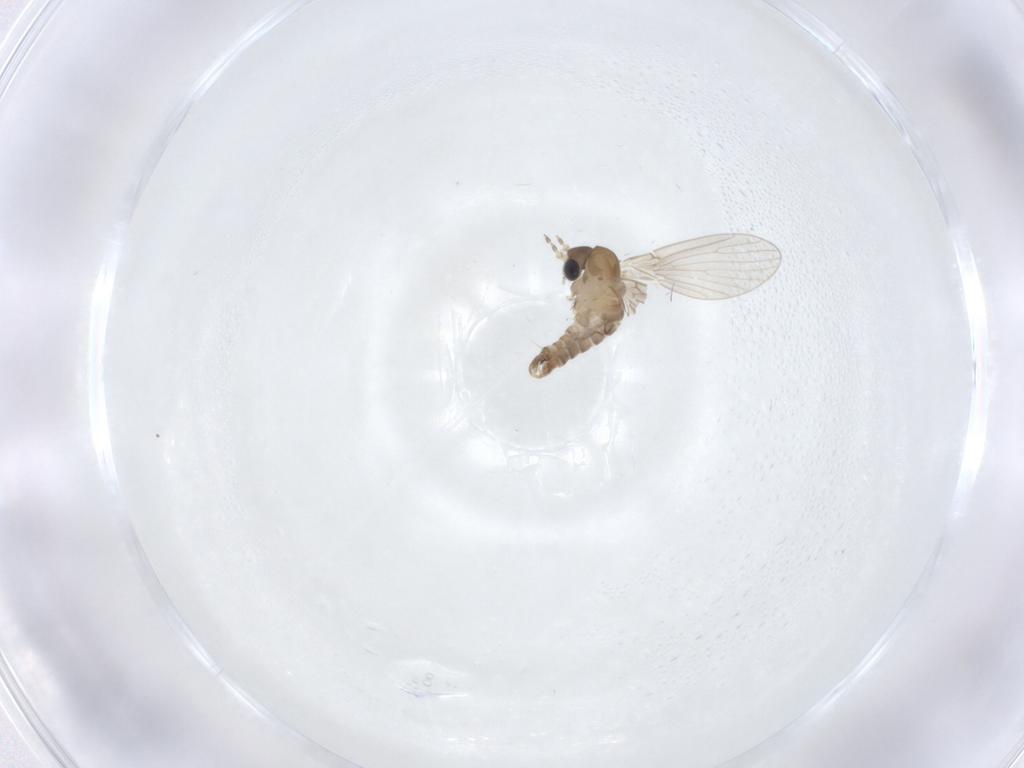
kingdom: Animalia
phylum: Arthropoda
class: Insecta
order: Diptera
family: Psychodidae
